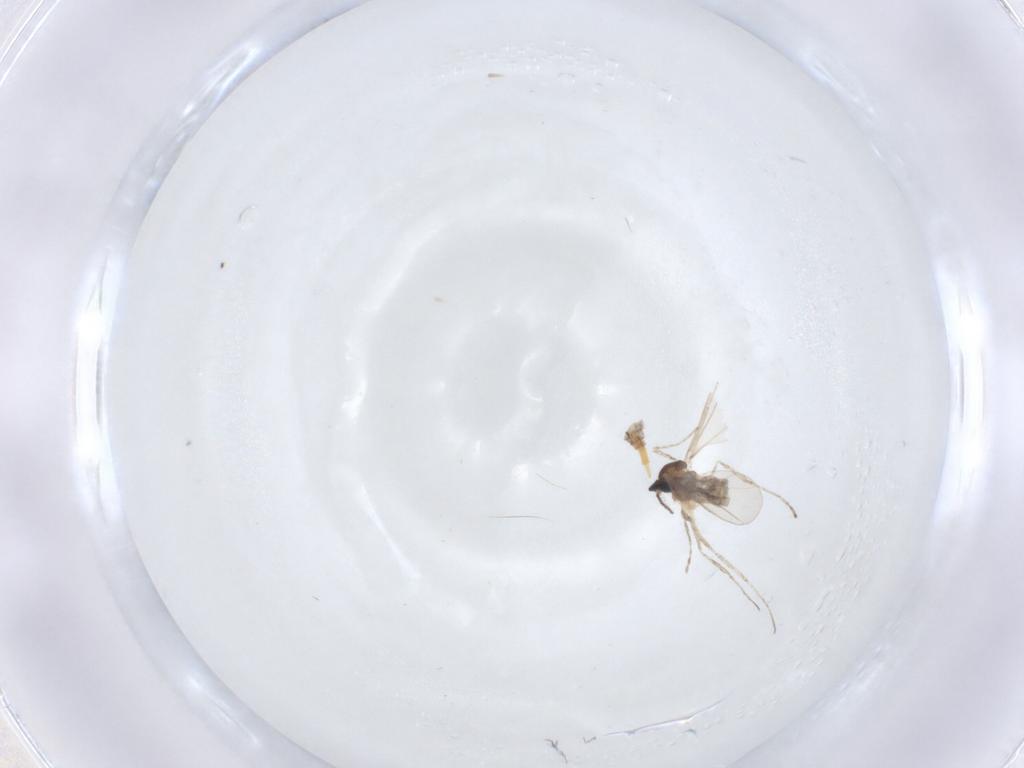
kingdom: Animalia
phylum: Arthropoda
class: Insecta
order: Diptera
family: Cecidomyiidae
